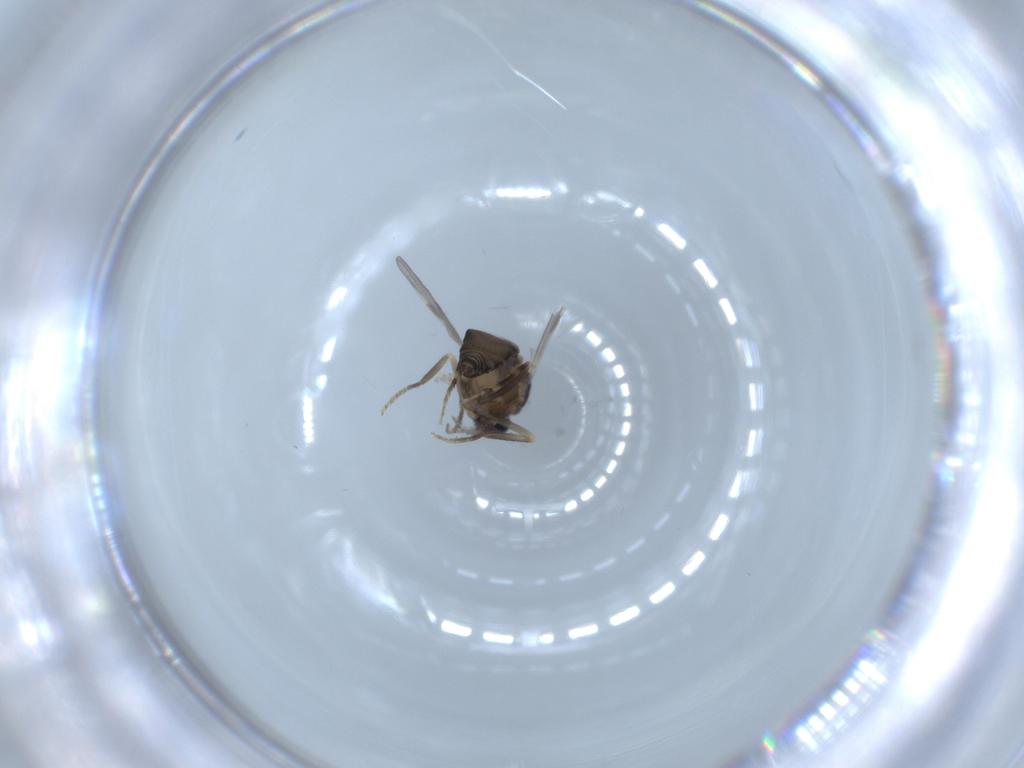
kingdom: Animalia
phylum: Arthropoda
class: Insecta
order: Diptera
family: Ceratopogonidae
